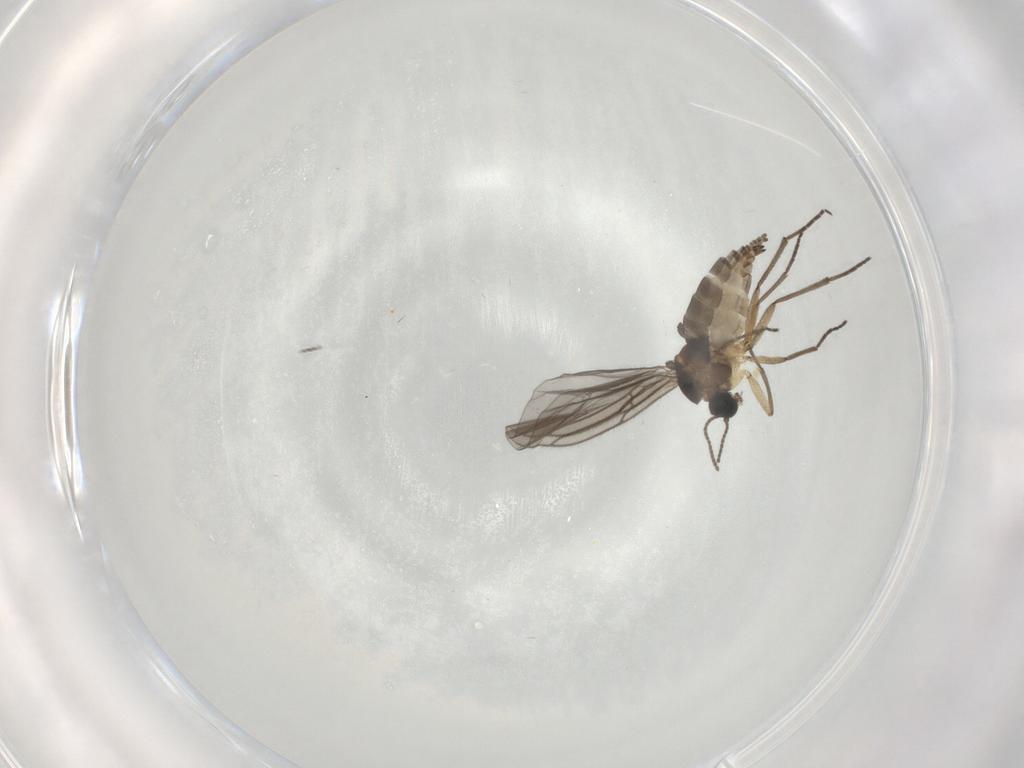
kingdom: Animalia
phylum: Arthropoda
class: Insecta
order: Diptera
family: Sciaridae
